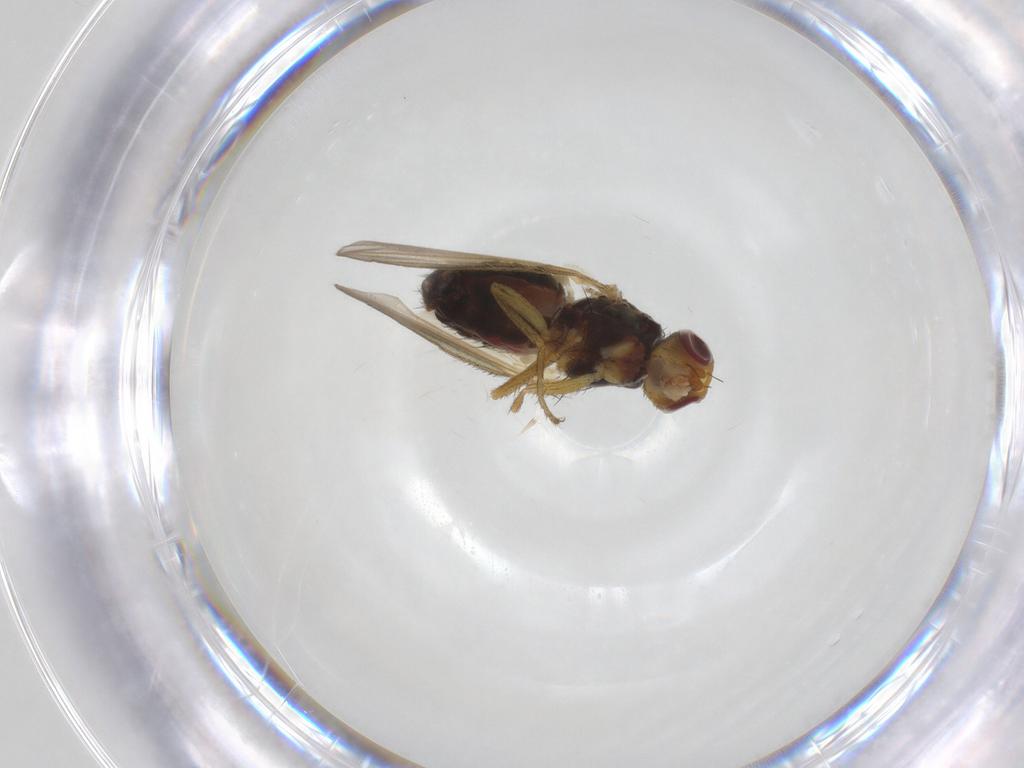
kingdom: Animalia
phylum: Arthropoda
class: Insecta
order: Diptera
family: Heleomyzidae
